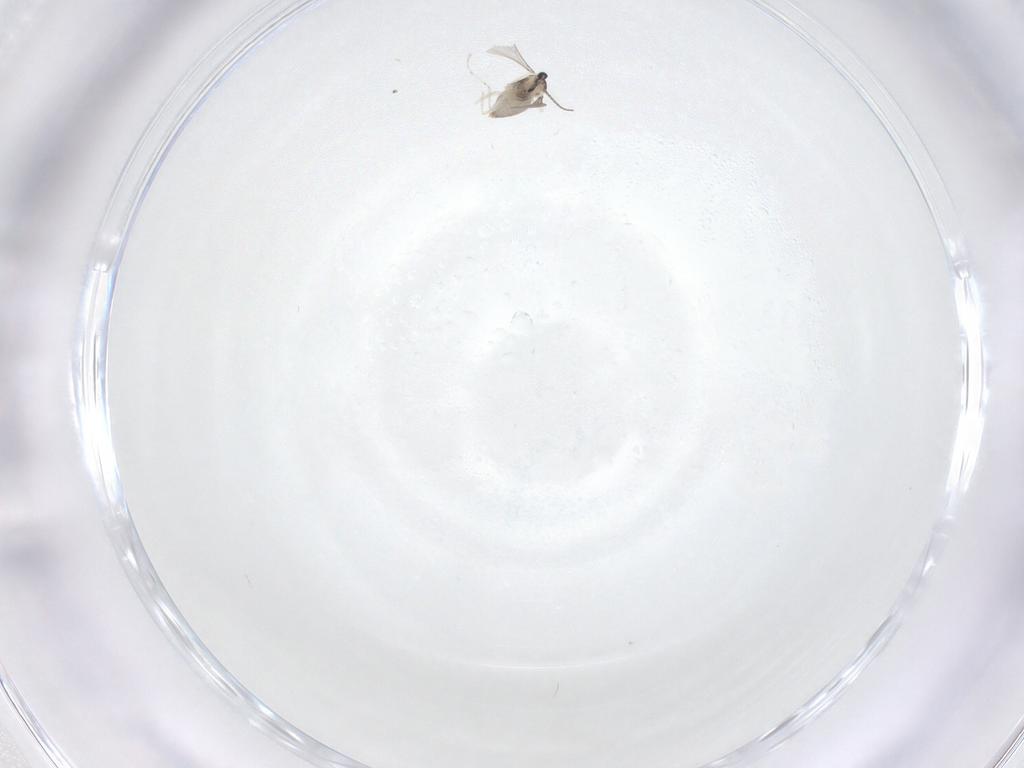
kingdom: Animalia
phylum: Arthropoda
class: Insecta
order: Diptera
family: Cecidomyiidae
